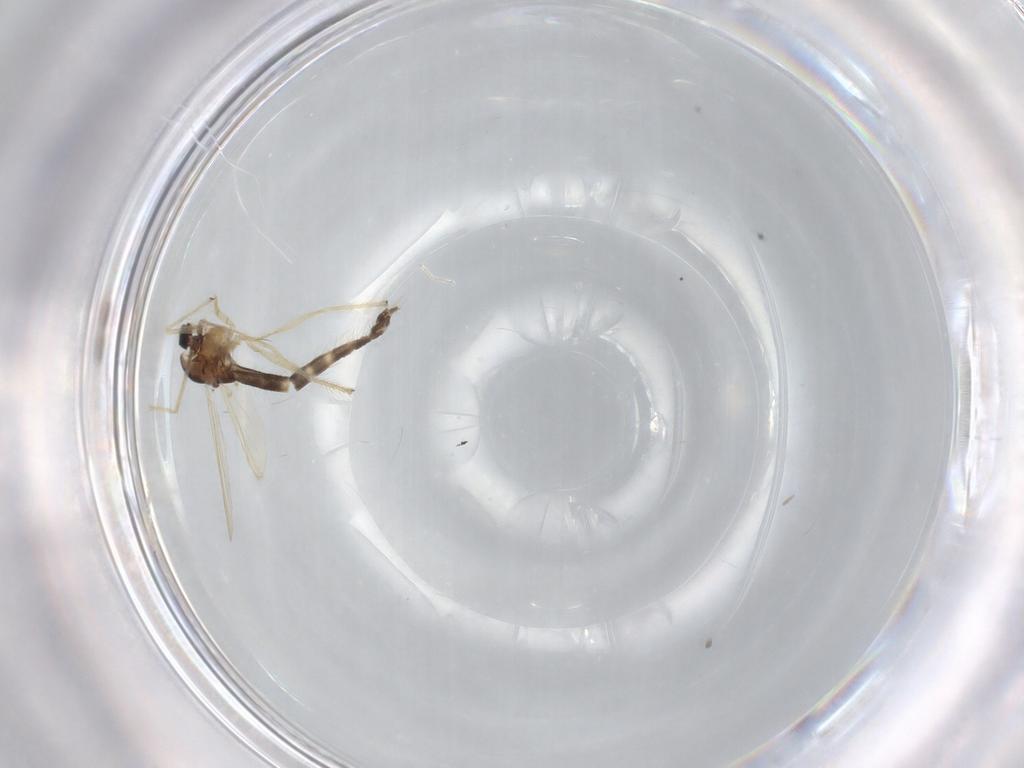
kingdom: Animalia
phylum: Arthropoda
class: Insecta
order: Diptera
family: Chironomidae
